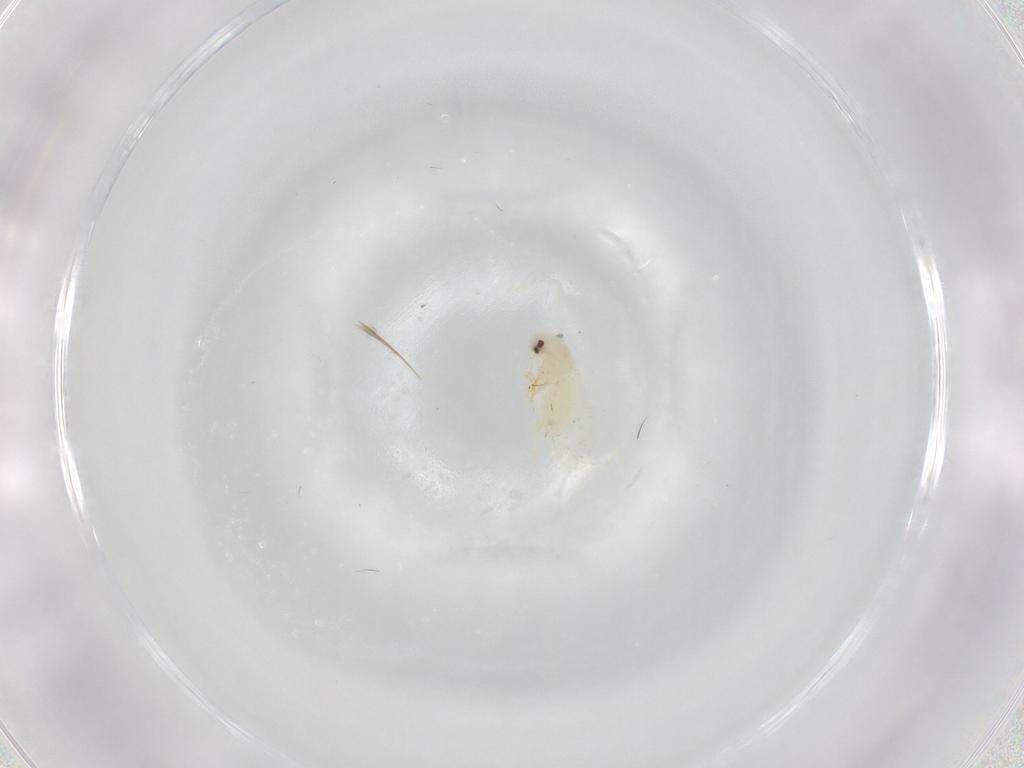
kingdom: Animalia
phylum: Arthropoda
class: Insecta
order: Hemiptera
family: Aleyrodidae
